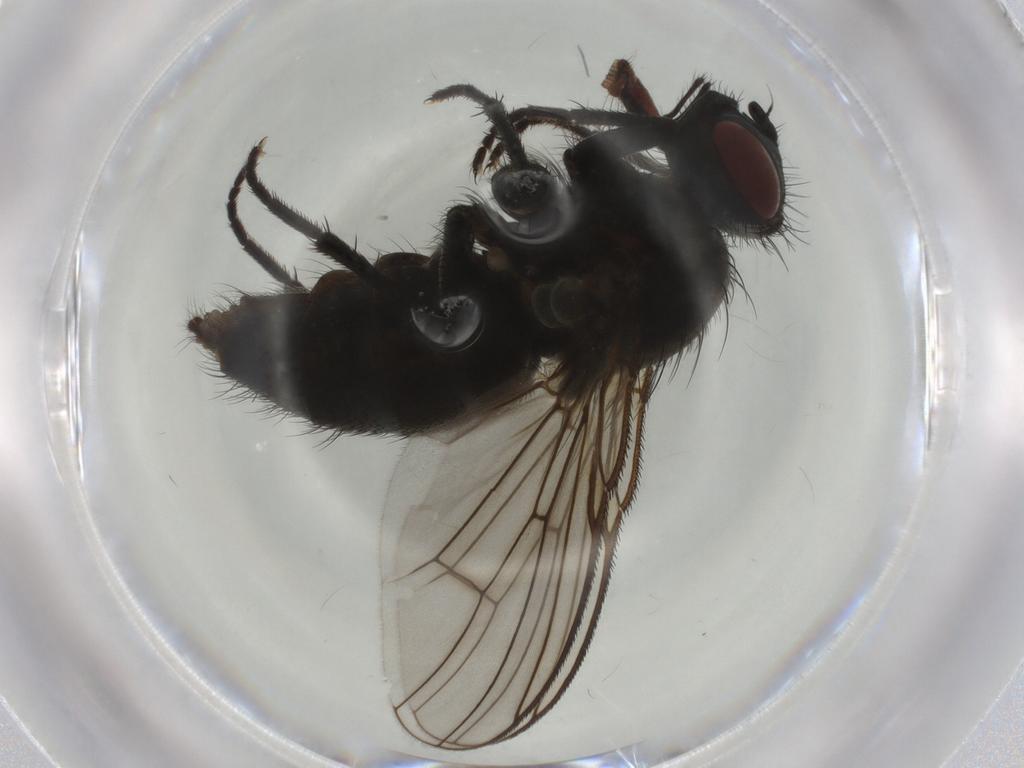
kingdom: Animalia
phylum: Arthropoda
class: Insecta
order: Diptera
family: Muscidae
